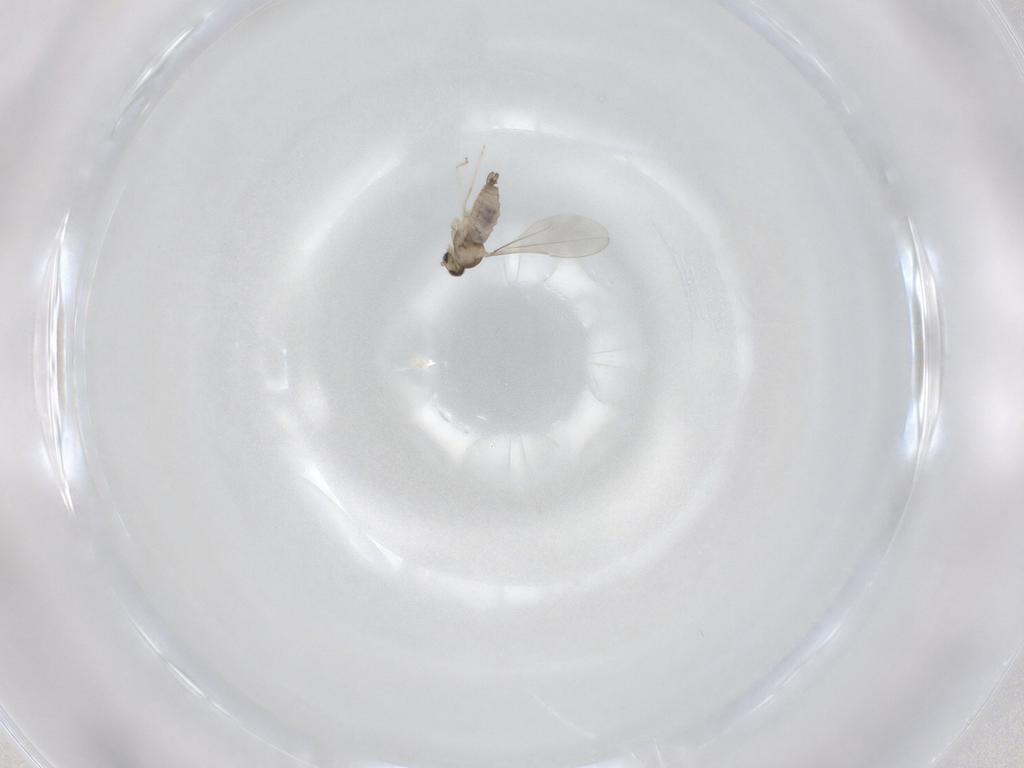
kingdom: Animalia
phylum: Arthropoda
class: Insecta
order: Diptera
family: Cecidomyiidae
